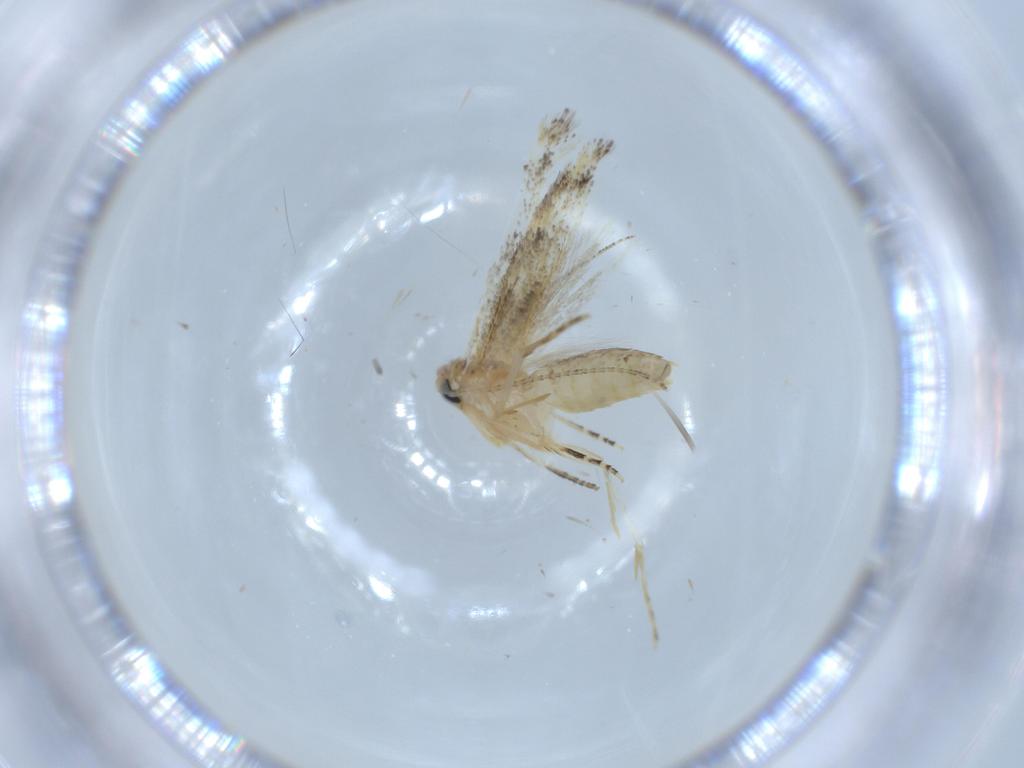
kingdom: Animalia
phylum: Arthropoda
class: Insecta
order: Lepidoptera
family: Bucculatricidae
